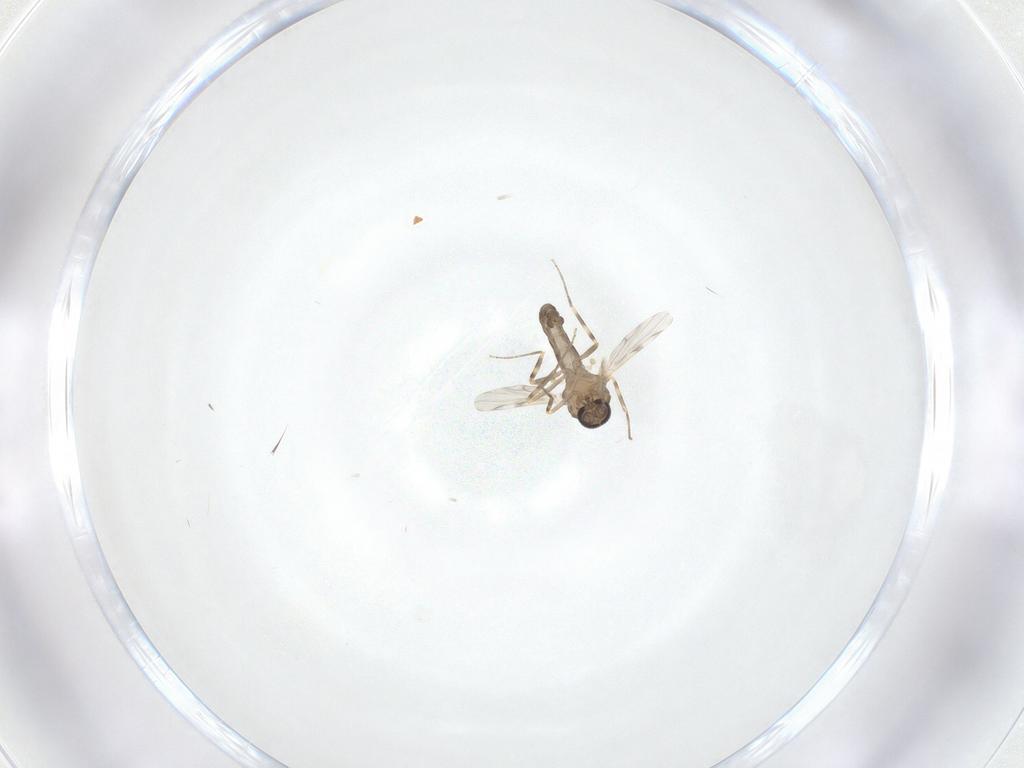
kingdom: Animalia
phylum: Arthropoda
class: Insecta
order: Diptera
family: Ceratopogonidae
